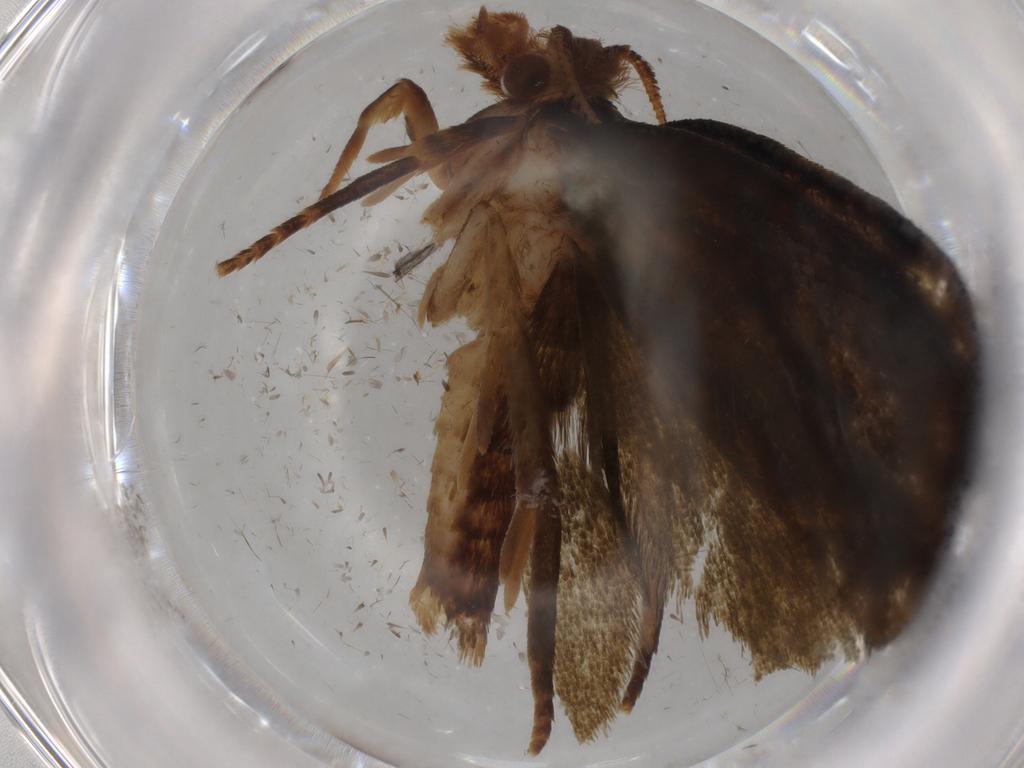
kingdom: Animalia
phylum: Arthropoda
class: Insecta
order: Lepidoptera
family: Geometridae
